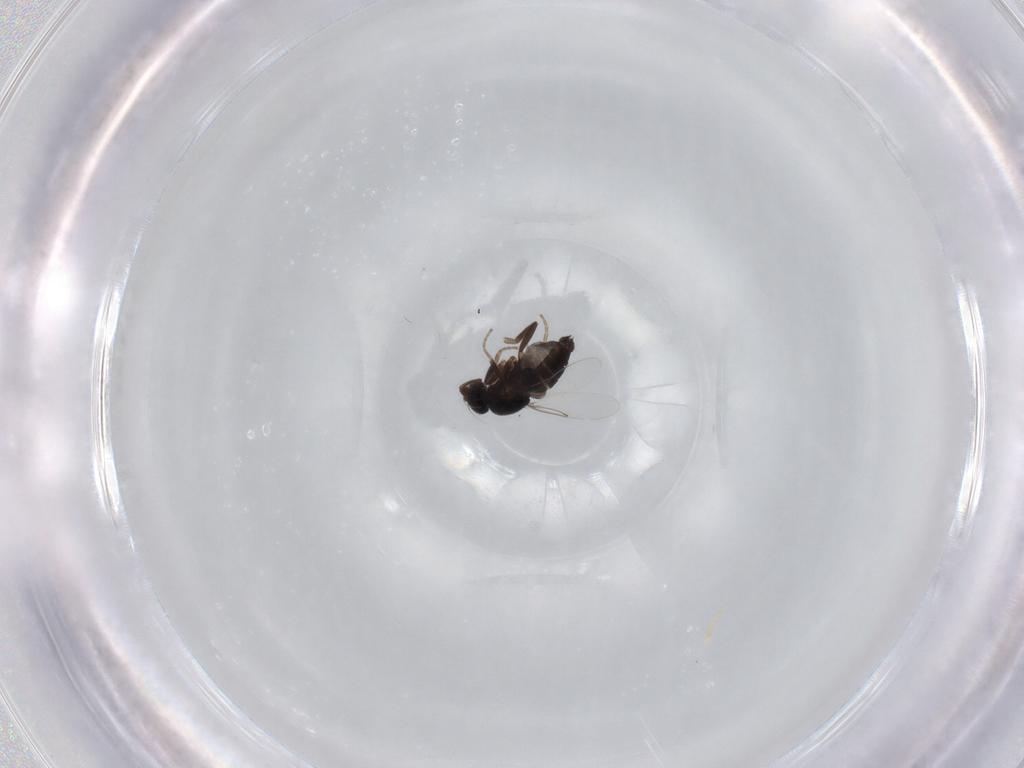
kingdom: Animalia
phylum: Arthropoda
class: Insecta
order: Diptera
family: Phoridae
